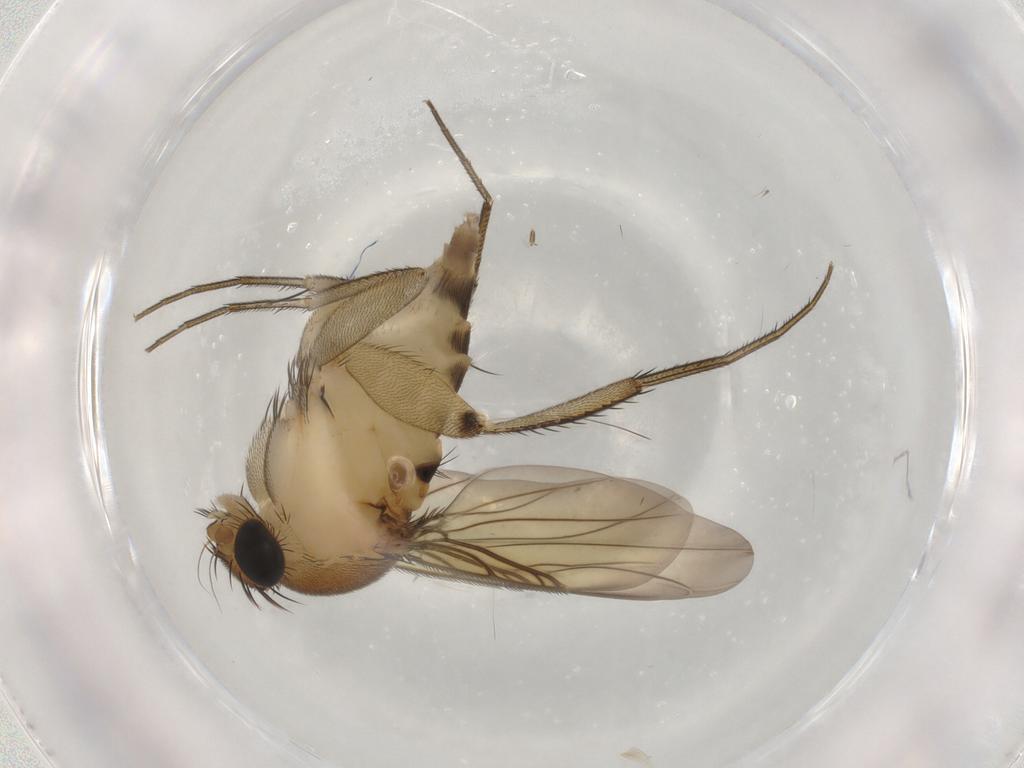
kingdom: Animalia
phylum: Arthropoda
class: Insecta
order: Diptera
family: Phoridae
